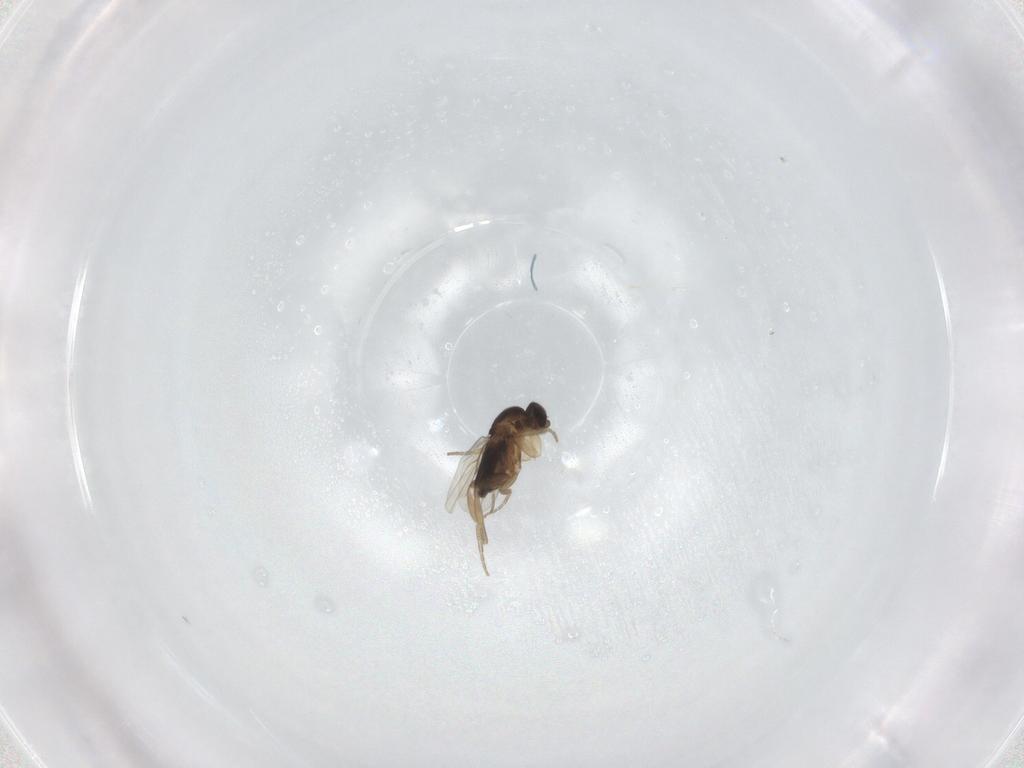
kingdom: Animalia
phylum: Arthropoda
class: Insecta
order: Diptera
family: Phoridae
